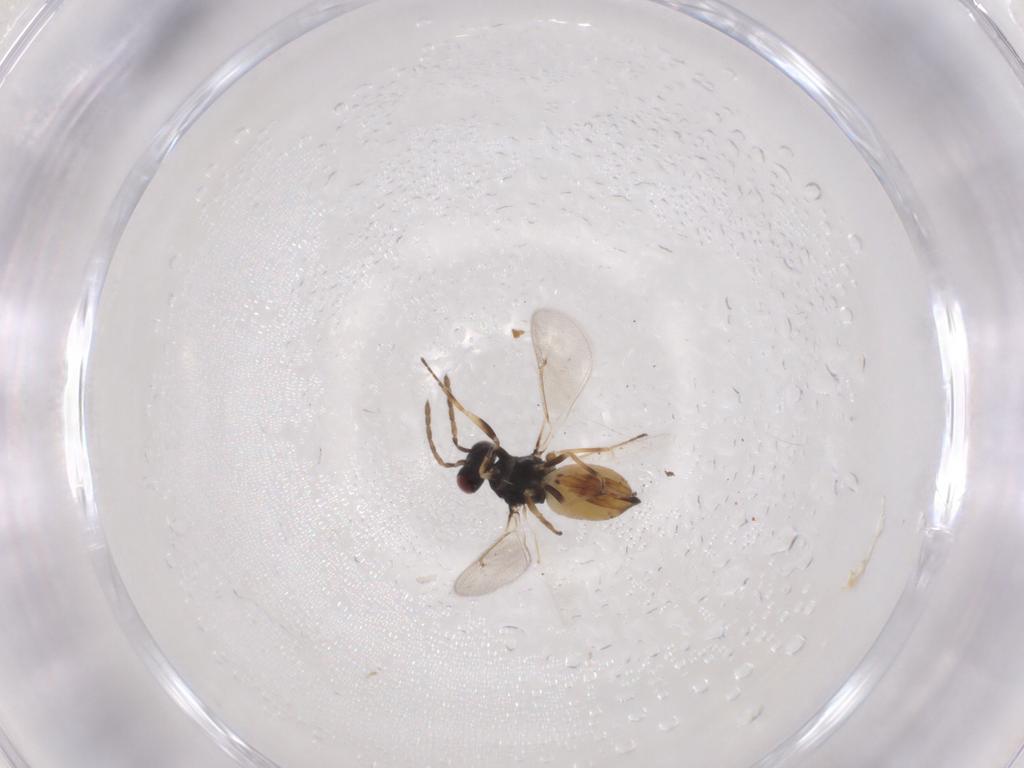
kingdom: Animalia
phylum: Arthropoda
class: Insecta
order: Hymenoptera
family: Eulophidae
